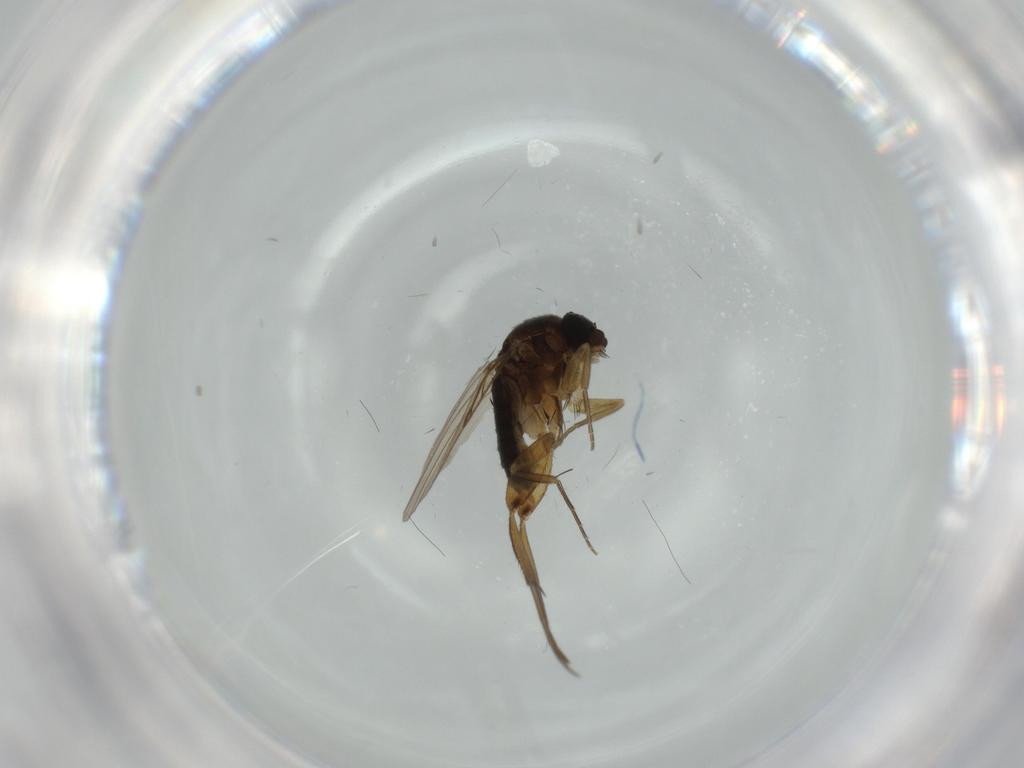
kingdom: Animalia
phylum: Arthropoda
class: Insecta
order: Diptera
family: Phoridae
